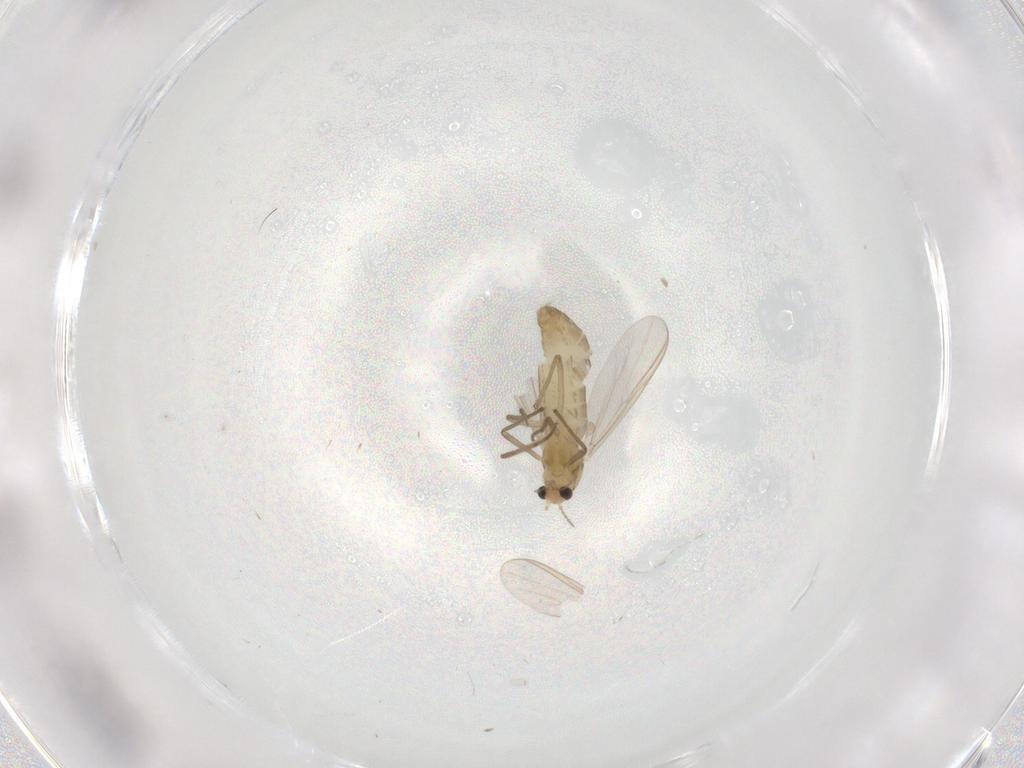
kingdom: Animalia
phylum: Arthropoda
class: Insecta
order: Diptera
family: Chironomidae
